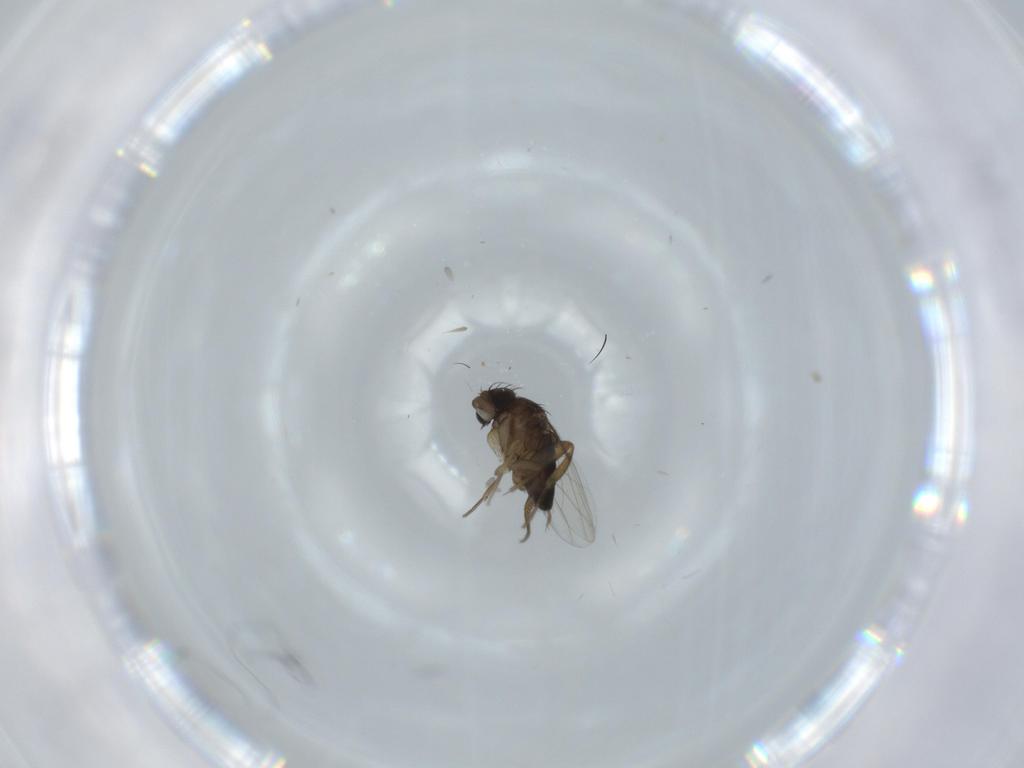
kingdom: Animalia
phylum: Arthropoda
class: Insecta
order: Diptera
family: Phoridae
